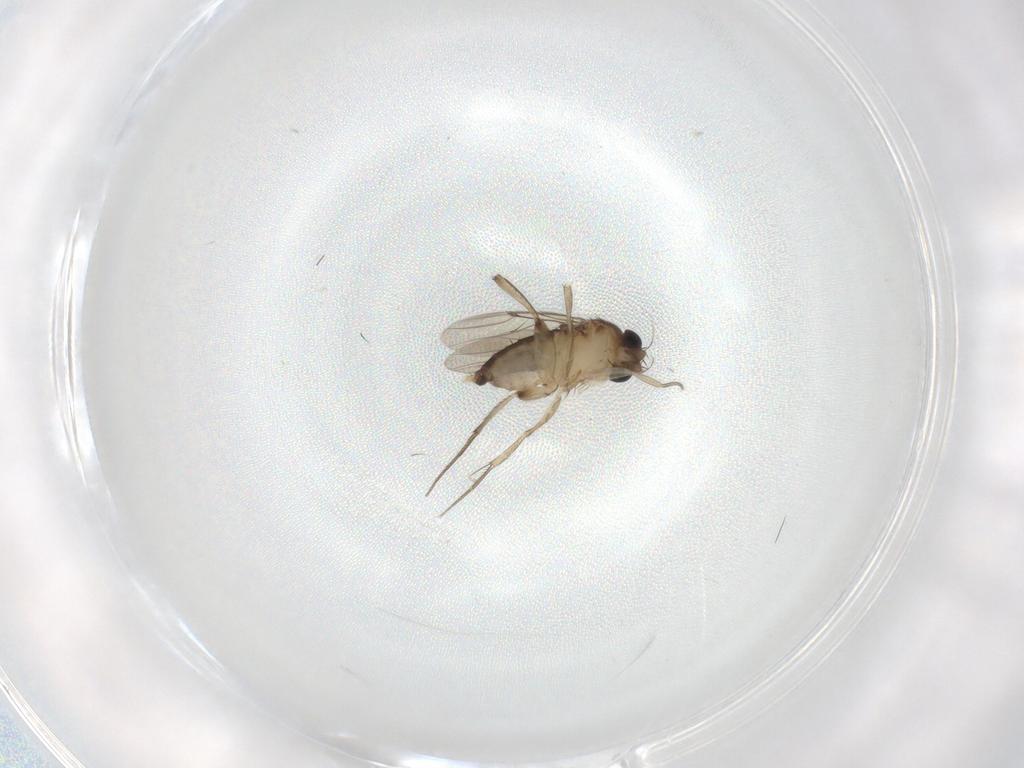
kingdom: Animalia
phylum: Arthropoda
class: Insecta
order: Diptera
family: Phoridae
